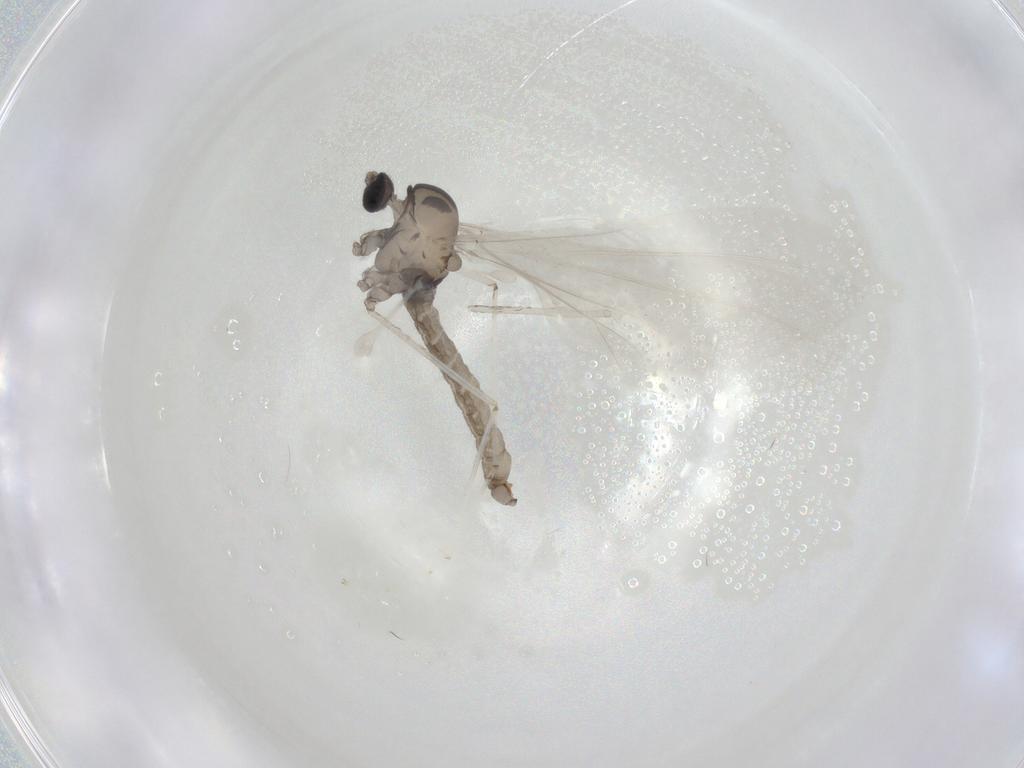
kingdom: Animalia
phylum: Arthropoda
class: Insecta
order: Diptera
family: Cecidomyiidae
